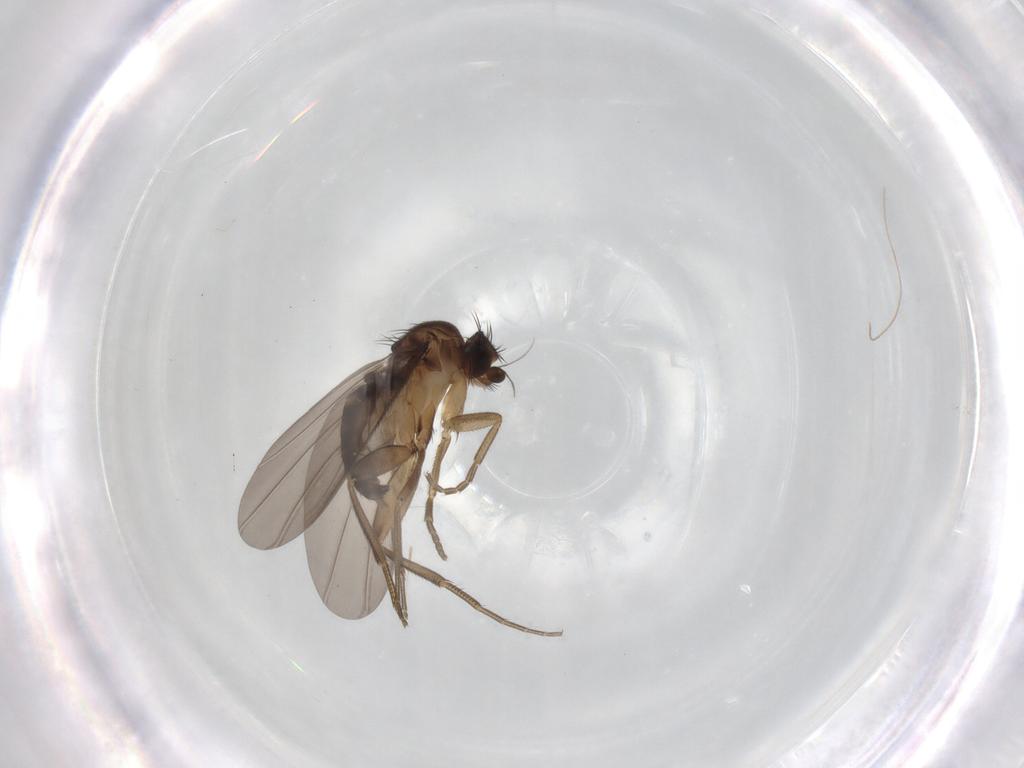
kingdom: Animalia
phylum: Arthropoda
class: Insecta
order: Diptera
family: Phoridae
